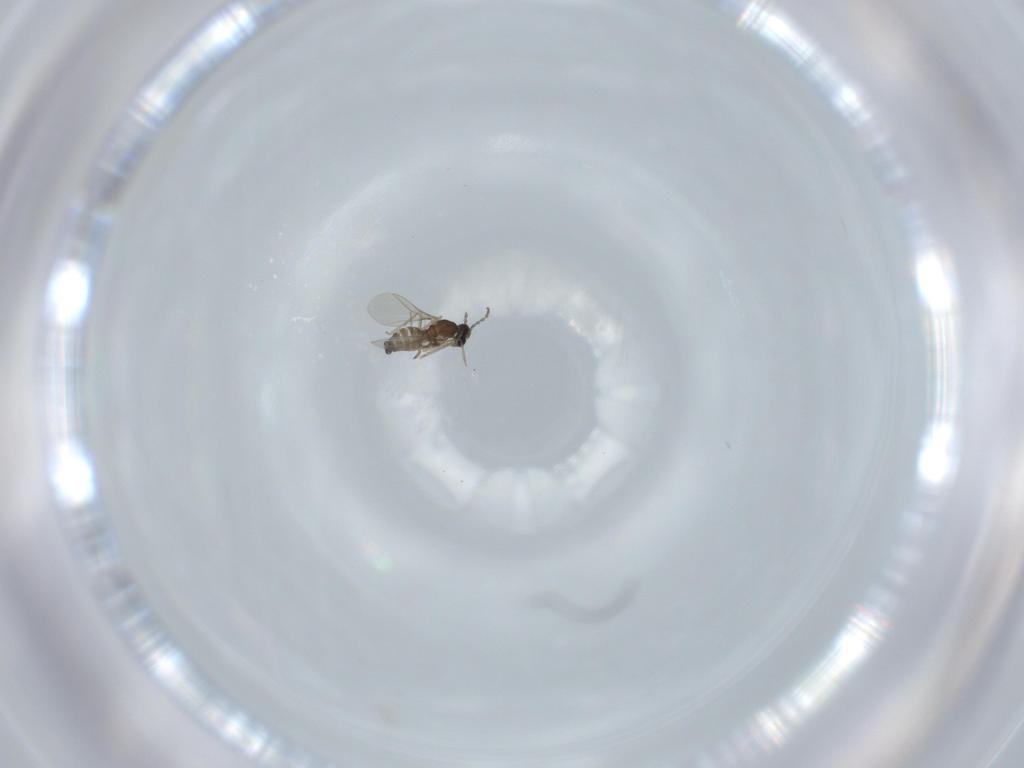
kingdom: Animalia
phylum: Arthropoda
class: Insecta
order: Diptera
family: Cecidomyiidae
